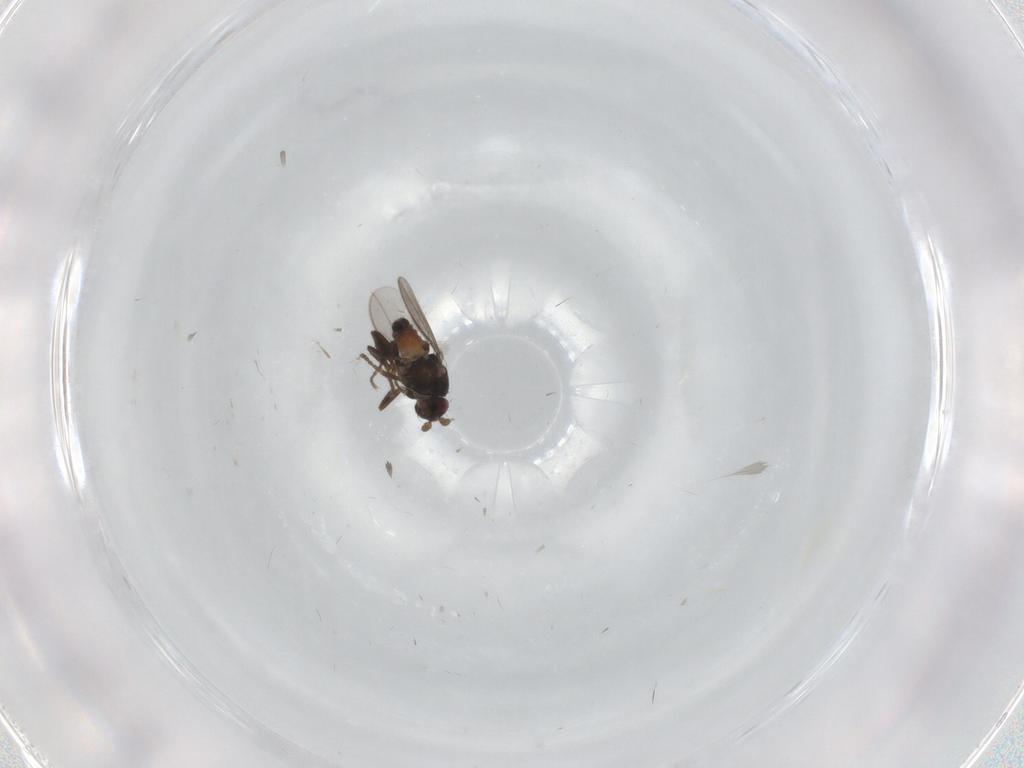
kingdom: Animalia
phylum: Arthropoda
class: Insecta
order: Diptera
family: Sphaeroceridae
